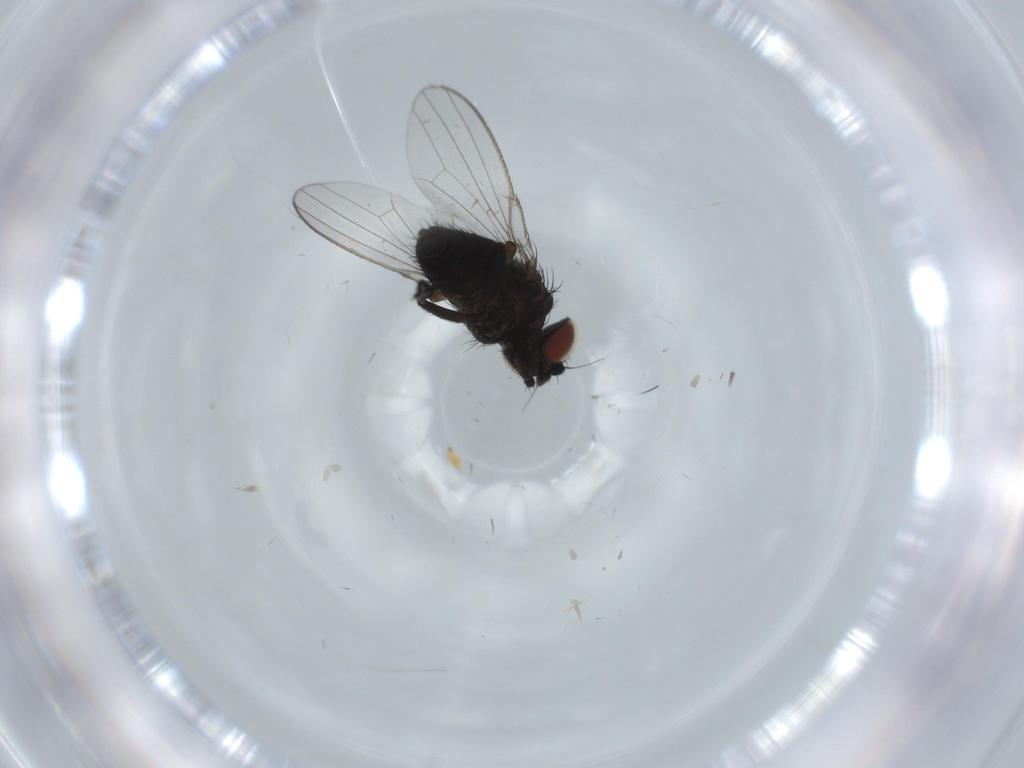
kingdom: Animalia
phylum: Arthropoda
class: Insecta
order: Diptera
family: Milichiidae
